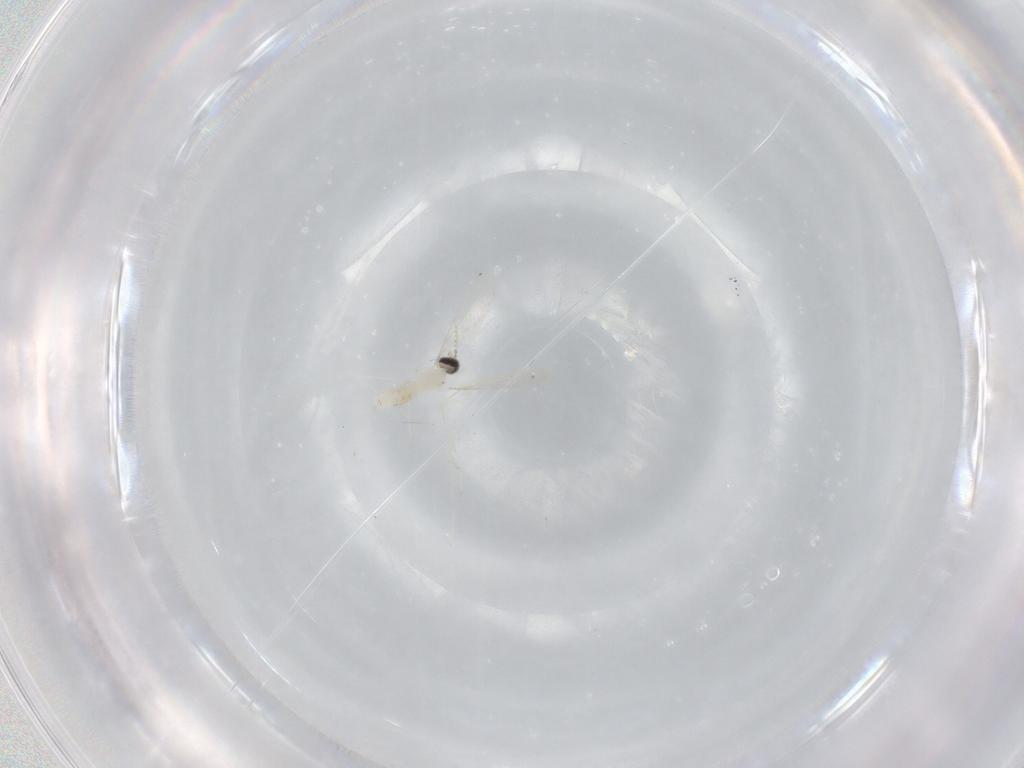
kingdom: Animalia
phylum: Arthropoda
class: Insecta
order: Diptera
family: Cecidomyiidae
